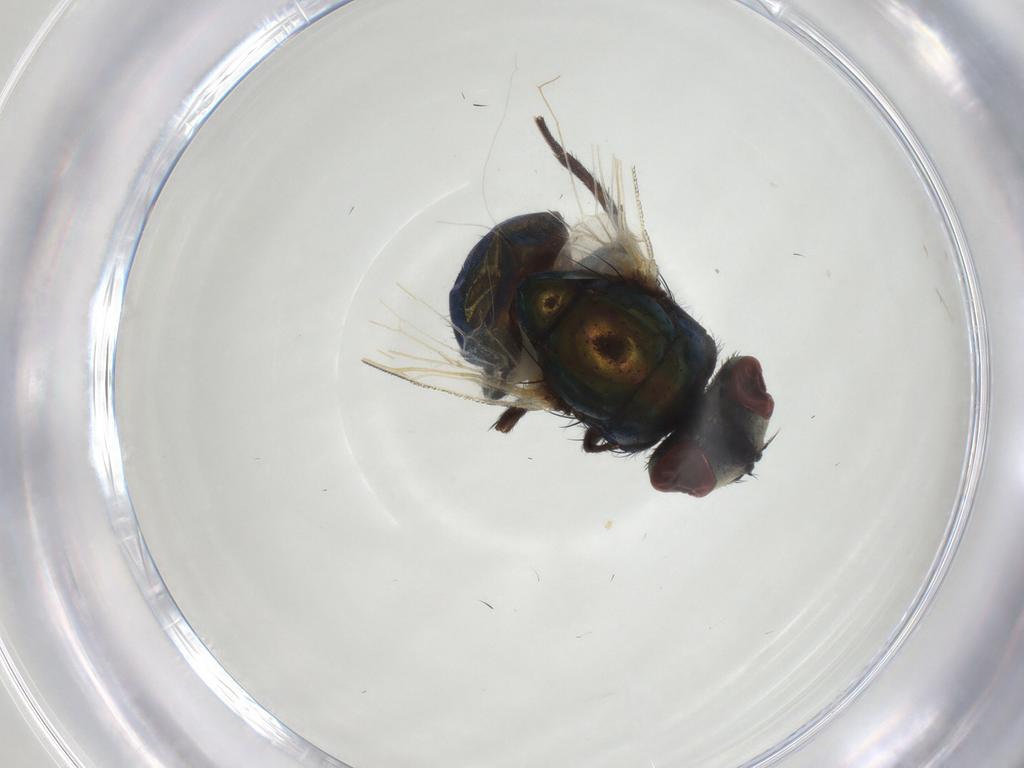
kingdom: Animalia
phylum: Arthropoda
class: Insecta
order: Diptera
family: Muscidae
